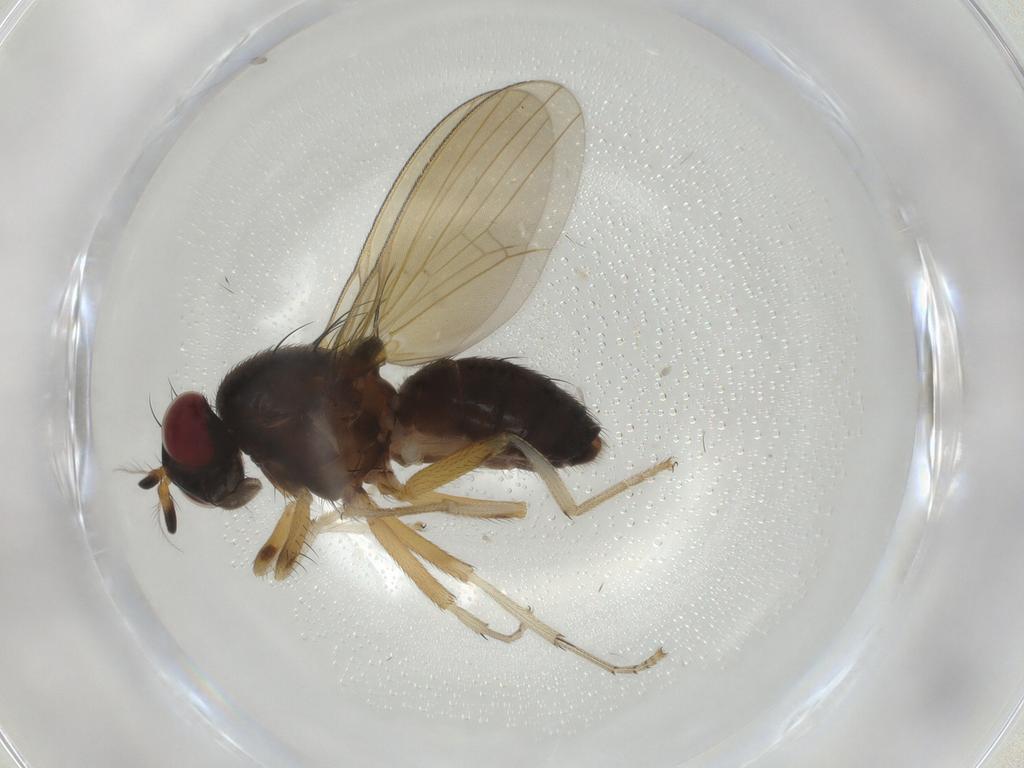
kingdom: Animalia
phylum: Arthropoda
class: Insecta
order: Diptera
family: Lauxaniidae
